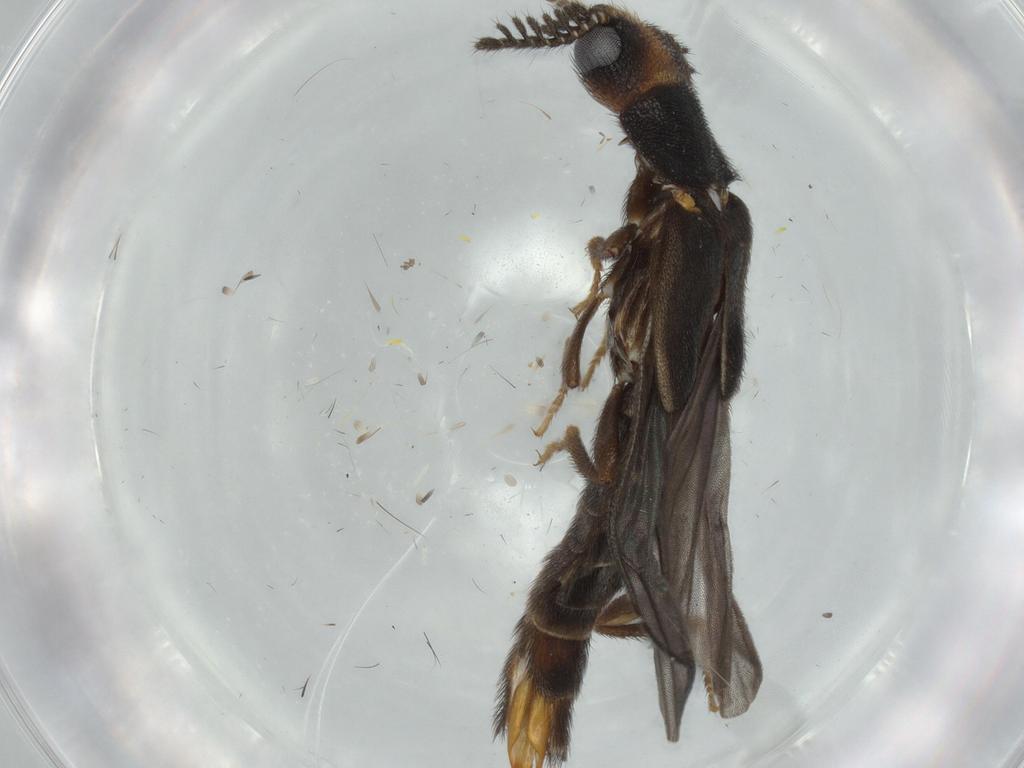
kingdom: Animalia
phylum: Arthropoda
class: Insecta
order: Coleoptera
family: Phengodidae
